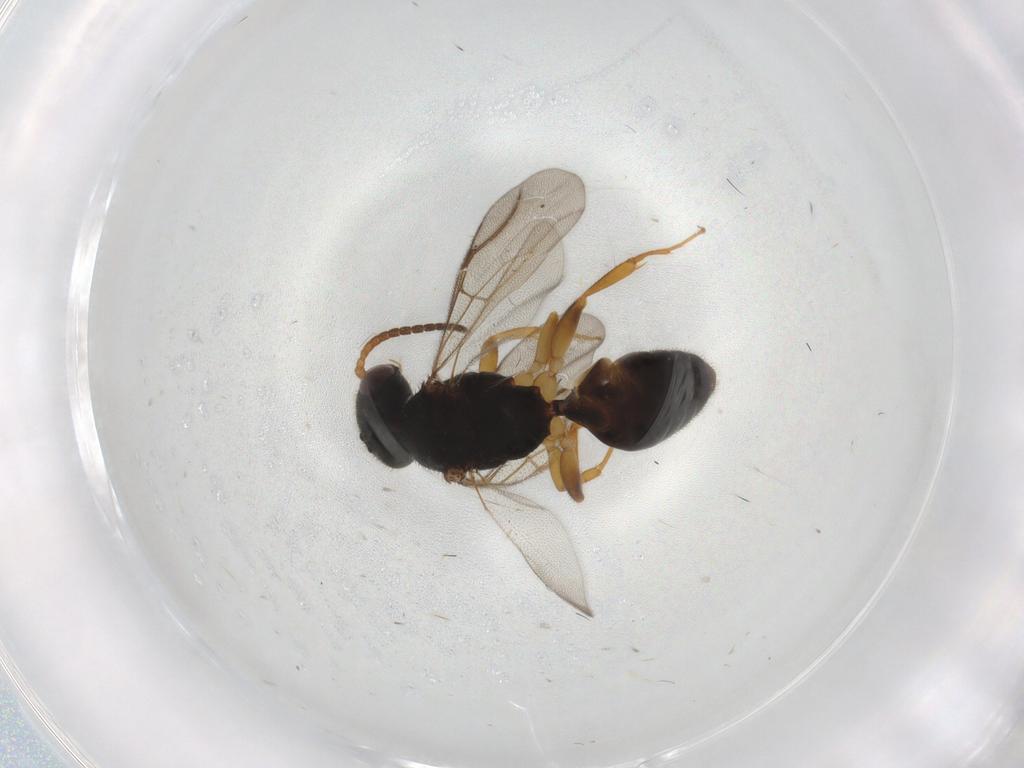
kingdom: Animalia
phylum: Arthropoda
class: Insecta
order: Hymenoptera
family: Bethylidae
